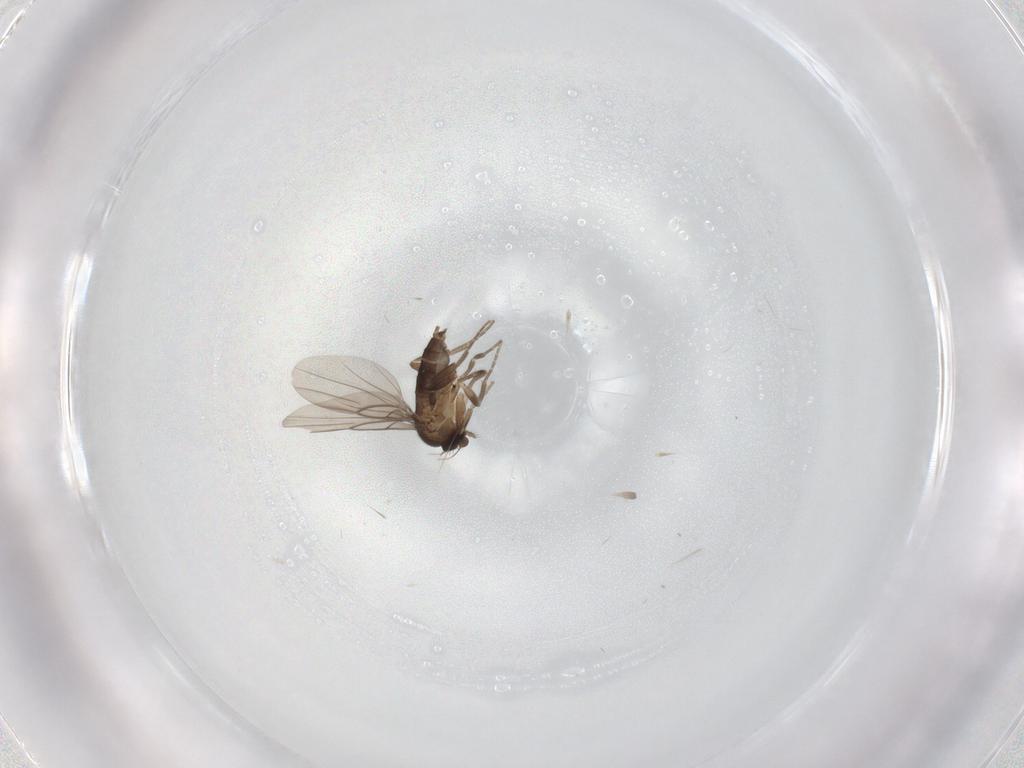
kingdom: Animalia
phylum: Arthropoda
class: Insecta
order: Diptera
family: Phoridae
